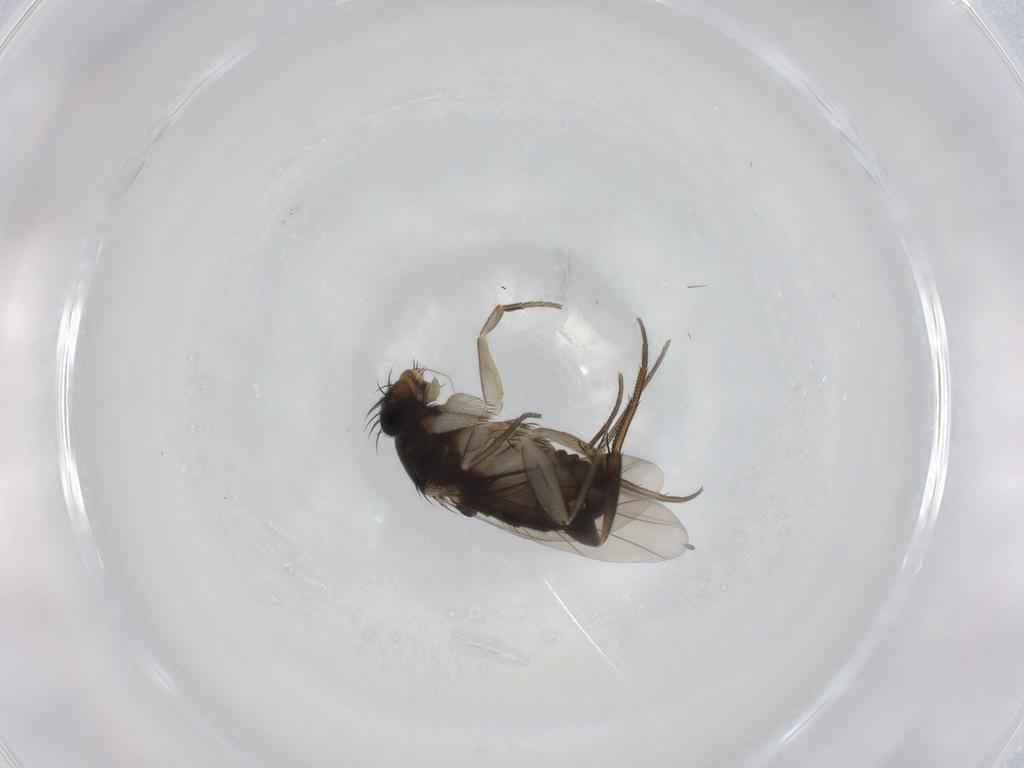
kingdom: Animalia
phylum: Arthropoda
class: Insecta
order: Diptera
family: Phoridae
